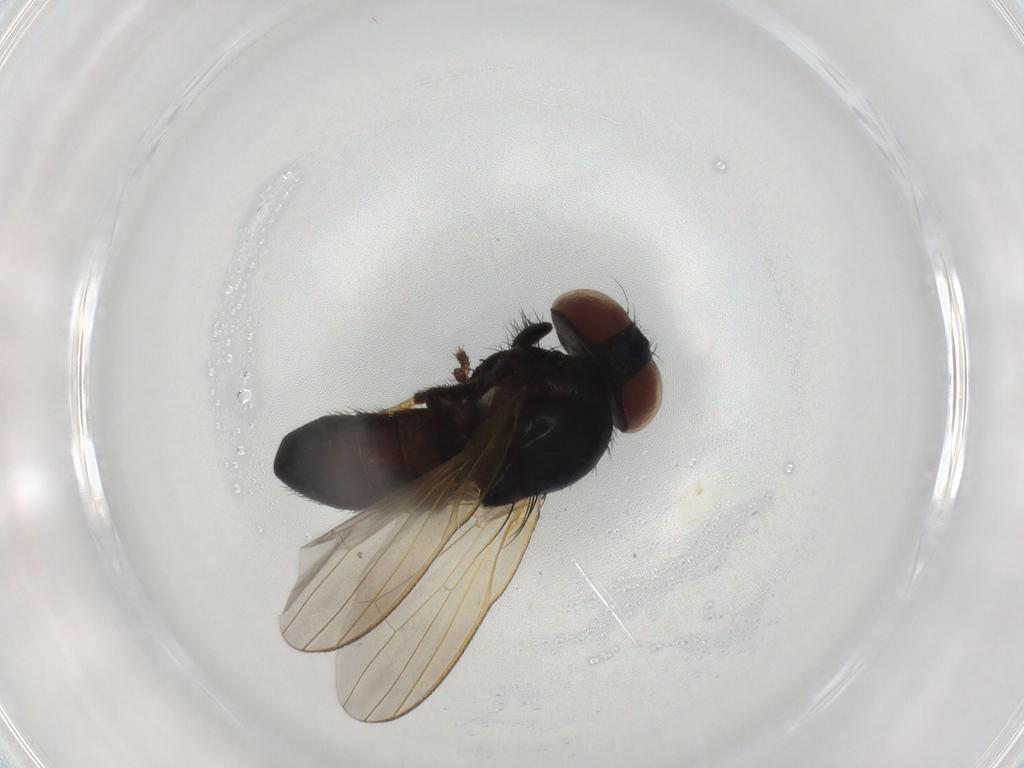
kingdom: Animalia
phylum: Arthropoda
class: Insecta
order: Diptera
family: Lonchaeidae
